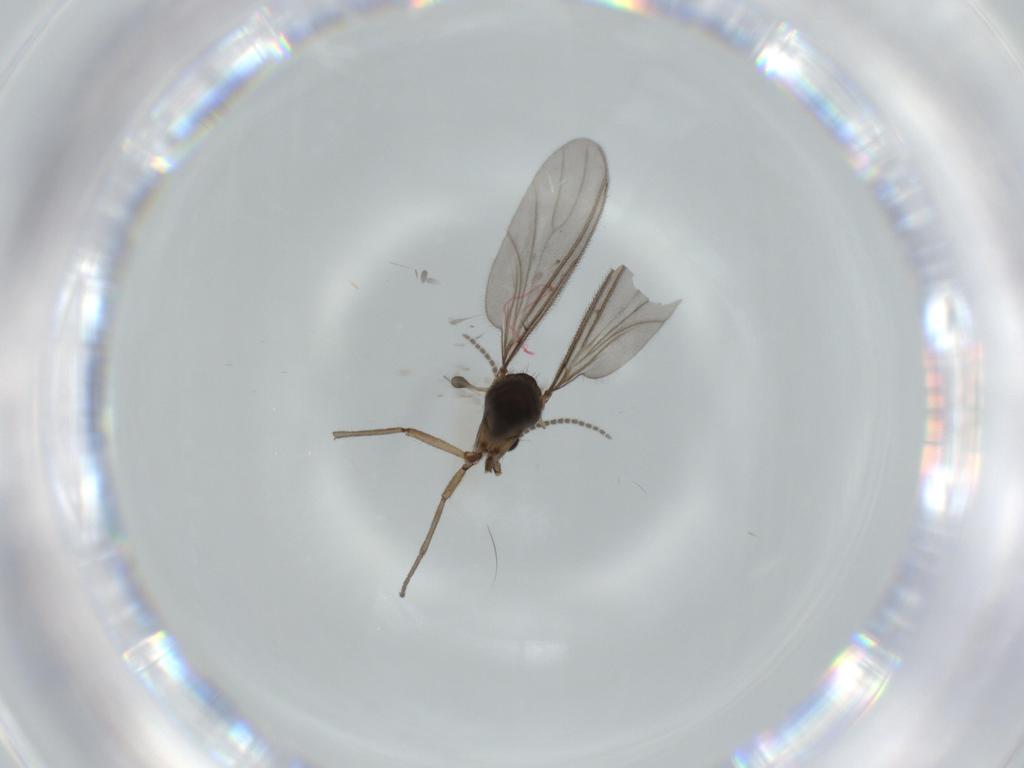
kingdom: Animalia
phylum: Arthropoda
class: Insecta
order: Diptera
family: Sciaridae
